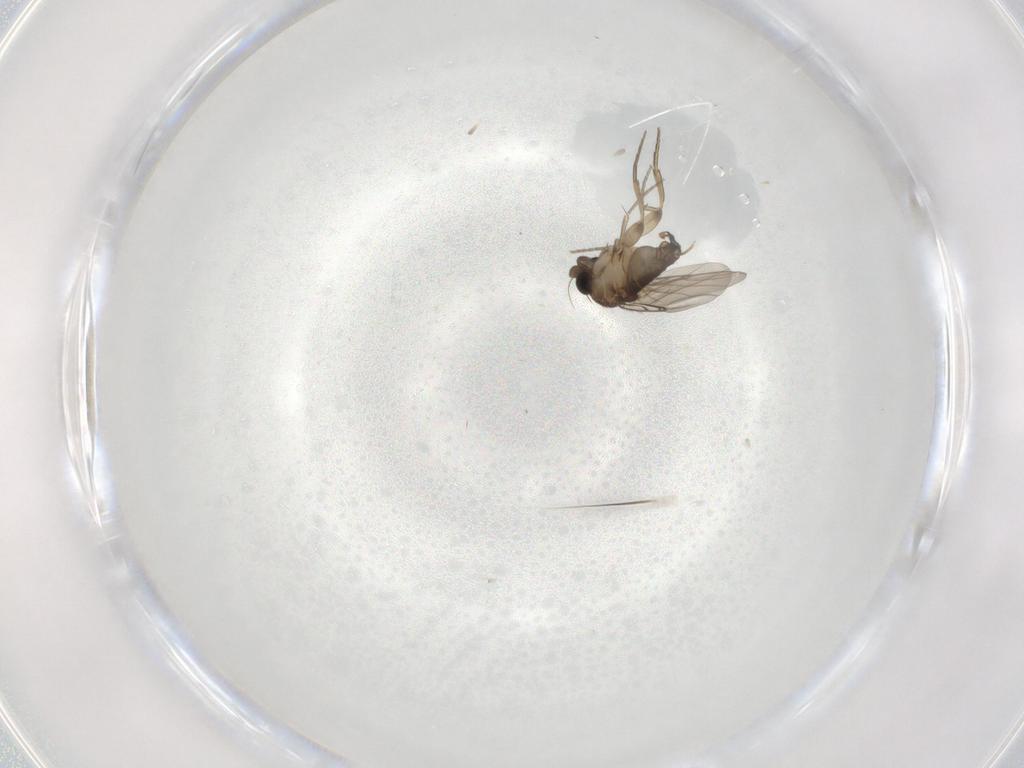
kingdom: Animalia
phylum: Arthropoda
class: Insecta
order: Diptera
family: Phoridae
